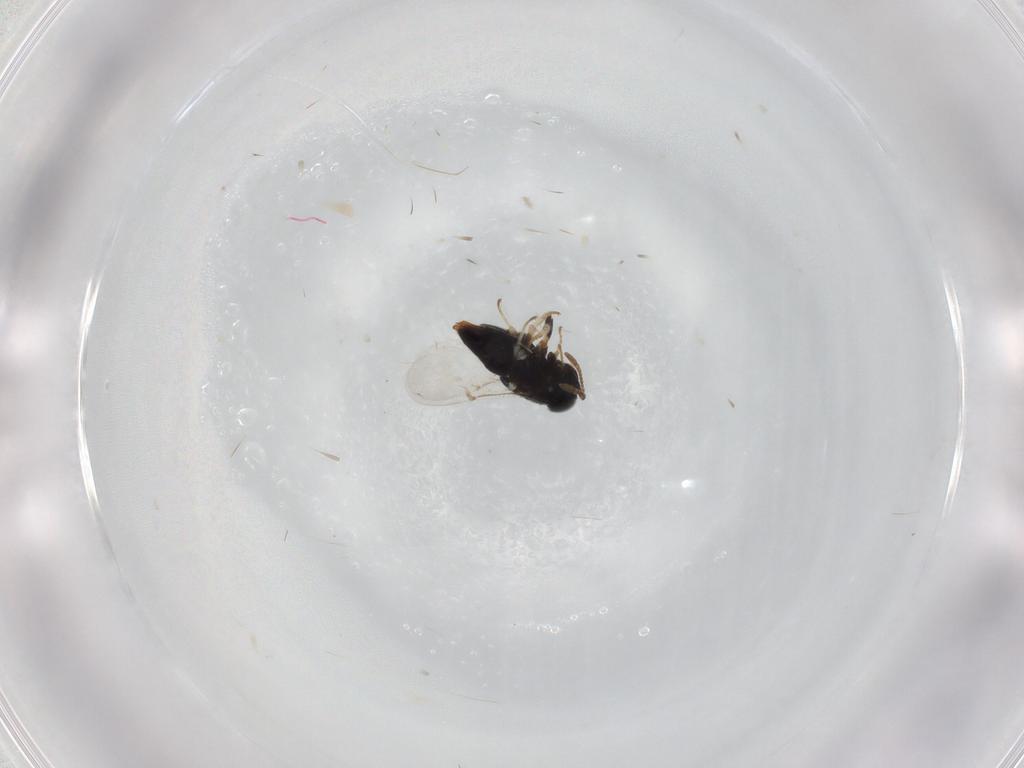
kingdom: Animalia
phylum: Arthropoda
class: Insecta
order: Hymenoptera
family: Encyrtidae
